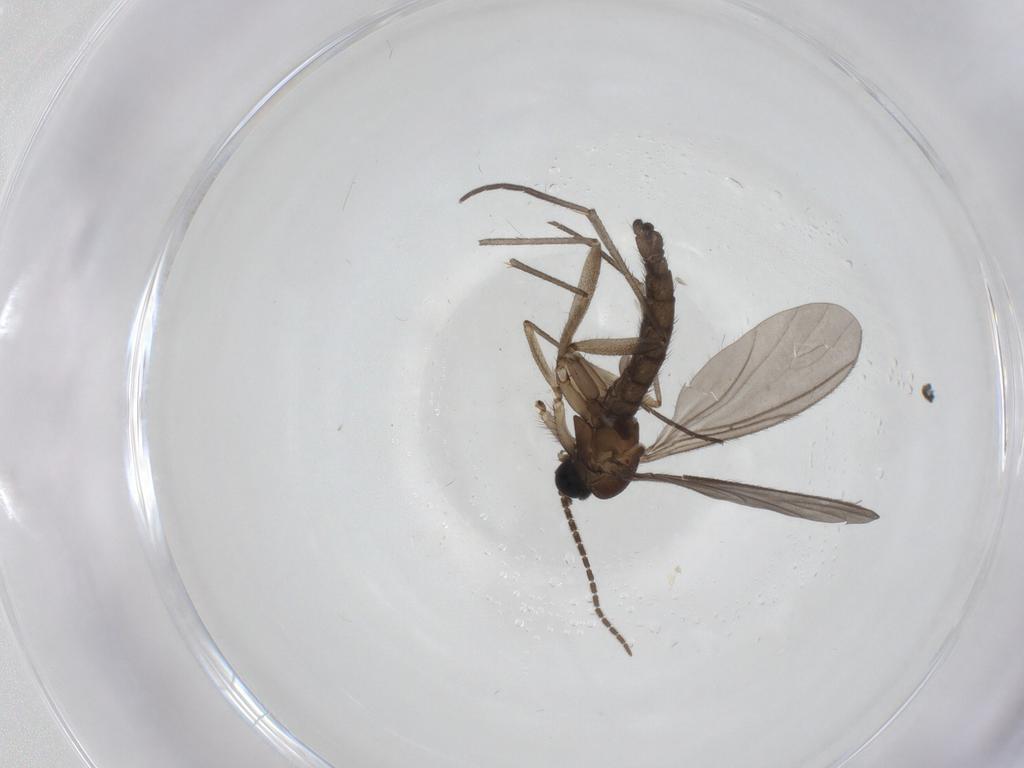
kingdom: Animalia
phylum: Arthropoda
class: Insecta
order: Diptera
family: Sciaridae
